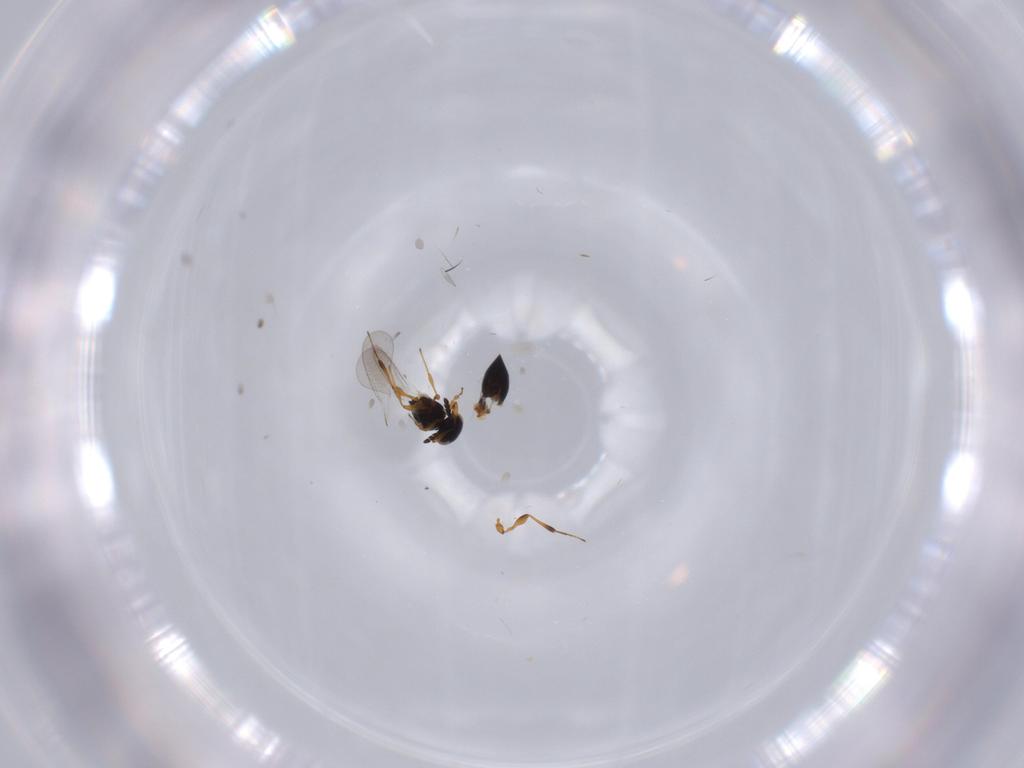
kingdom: Animalia
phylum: Arthropoda
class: Insecta
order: Hymenoptera
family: Platygastridae
